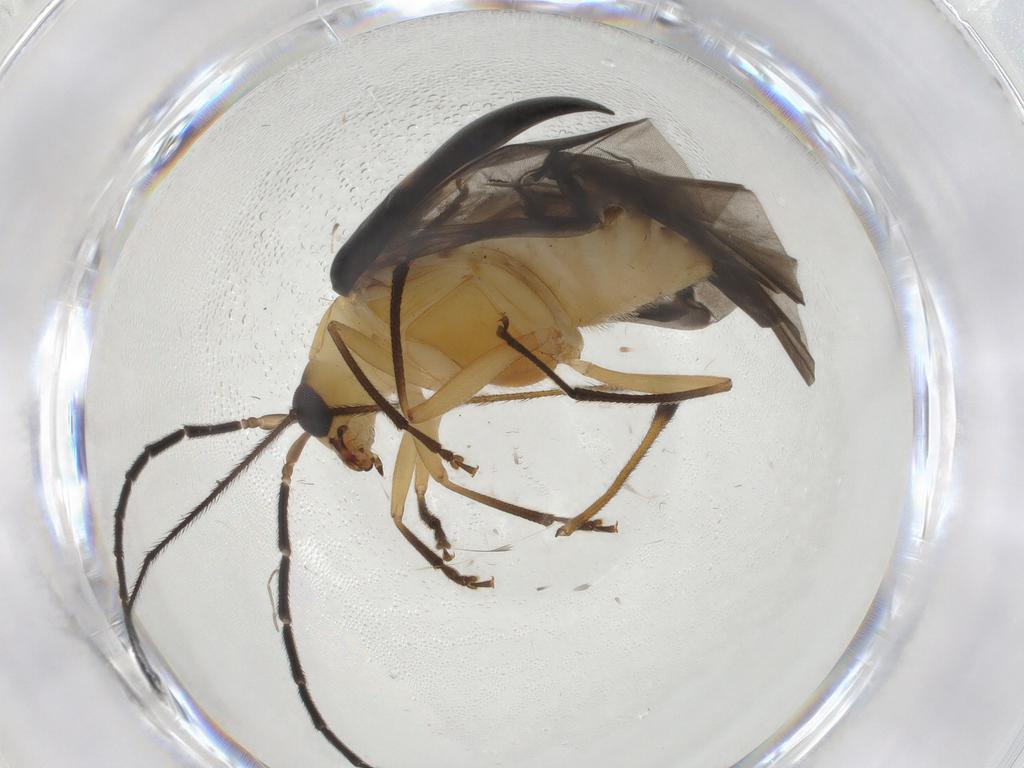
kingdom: Animalia
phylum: Arthropoda
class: Insecta
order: Coleoptera
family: Chrysomelidae
